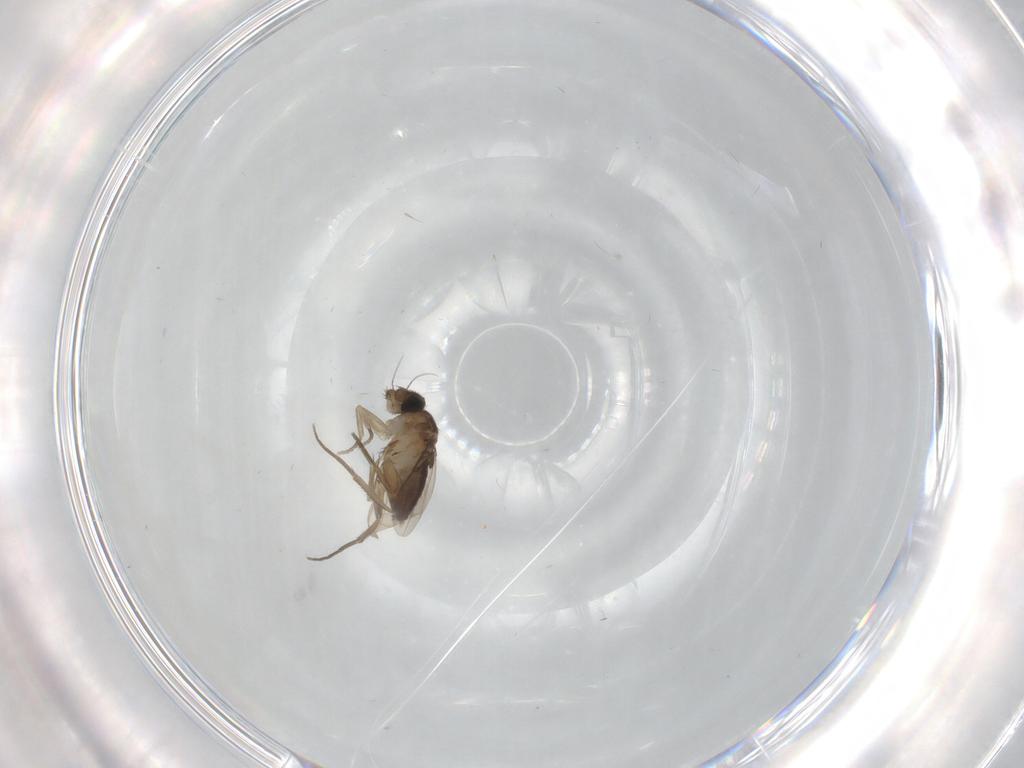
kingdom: Animalia
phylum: Arthropoda
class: Insecta
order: Diptera
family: Phoridae
